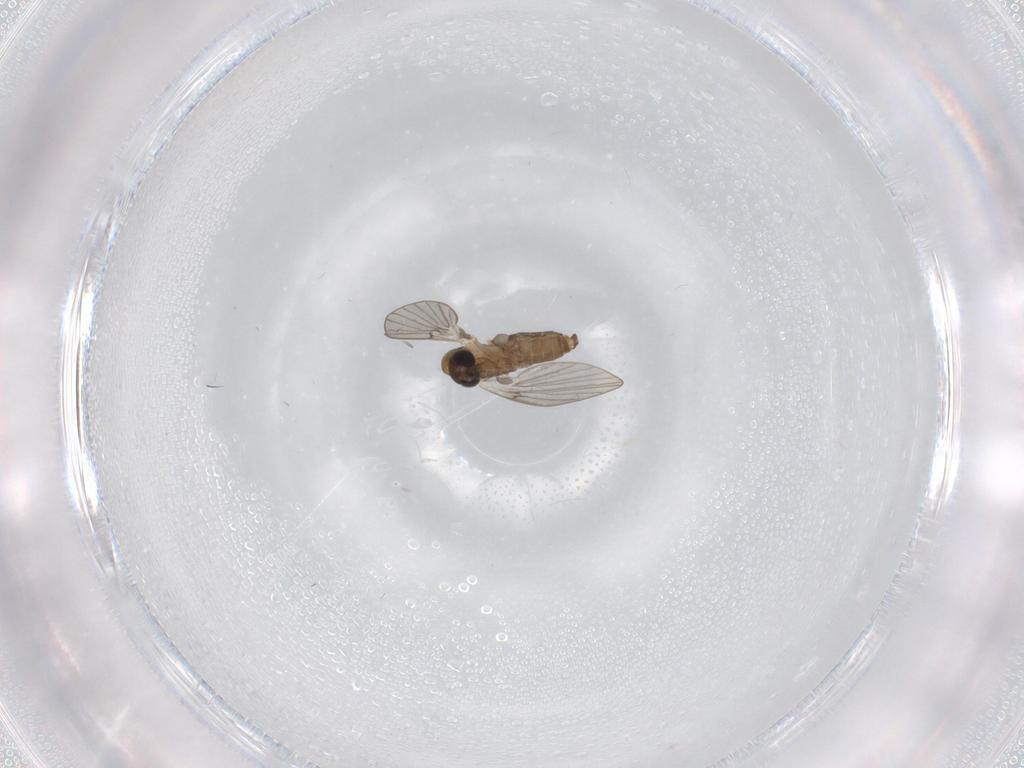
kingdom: Animalia
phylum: Arthropoda
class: Insecta
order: Diptera
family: Psychodidae
